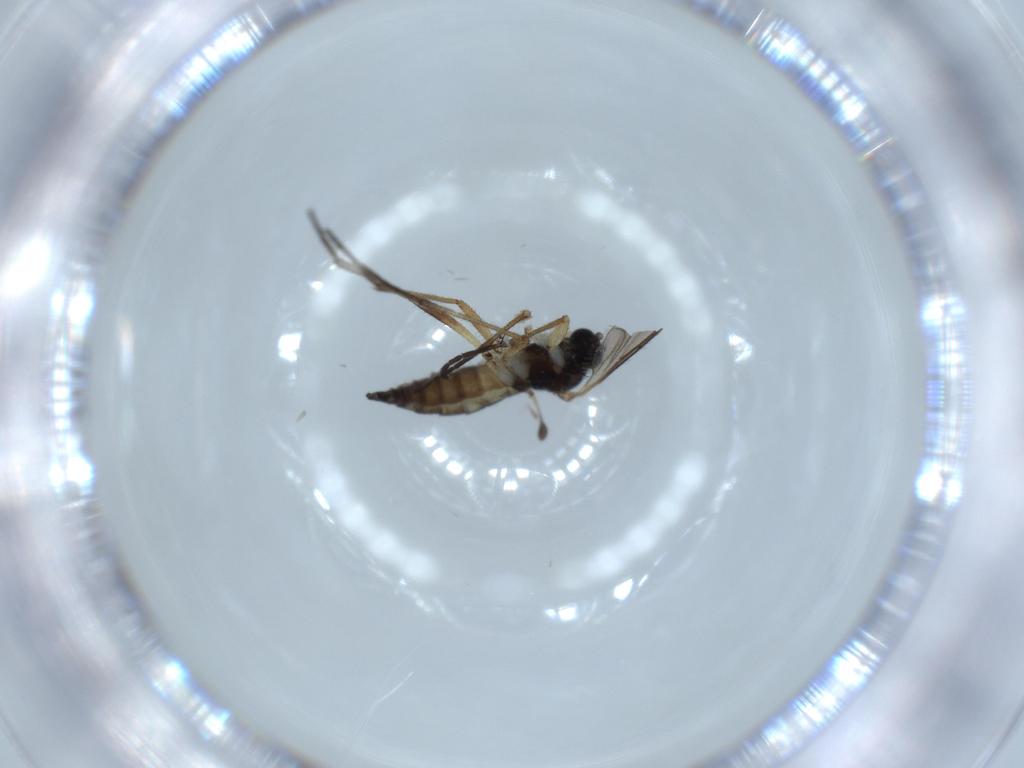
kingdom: Animalia
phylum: Arthropoda
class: Insecta
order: Diptera
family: Sciaridae
